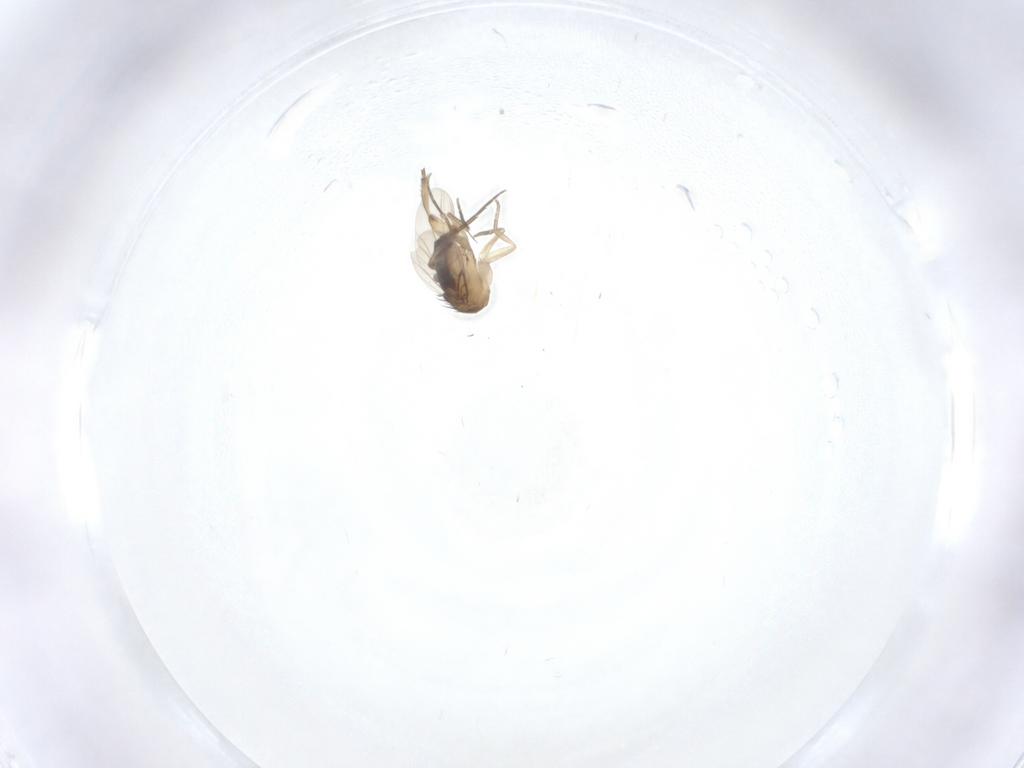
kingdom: Animalia
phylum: Arthropoda
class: Insecta
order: Diptera
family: Phoridae
